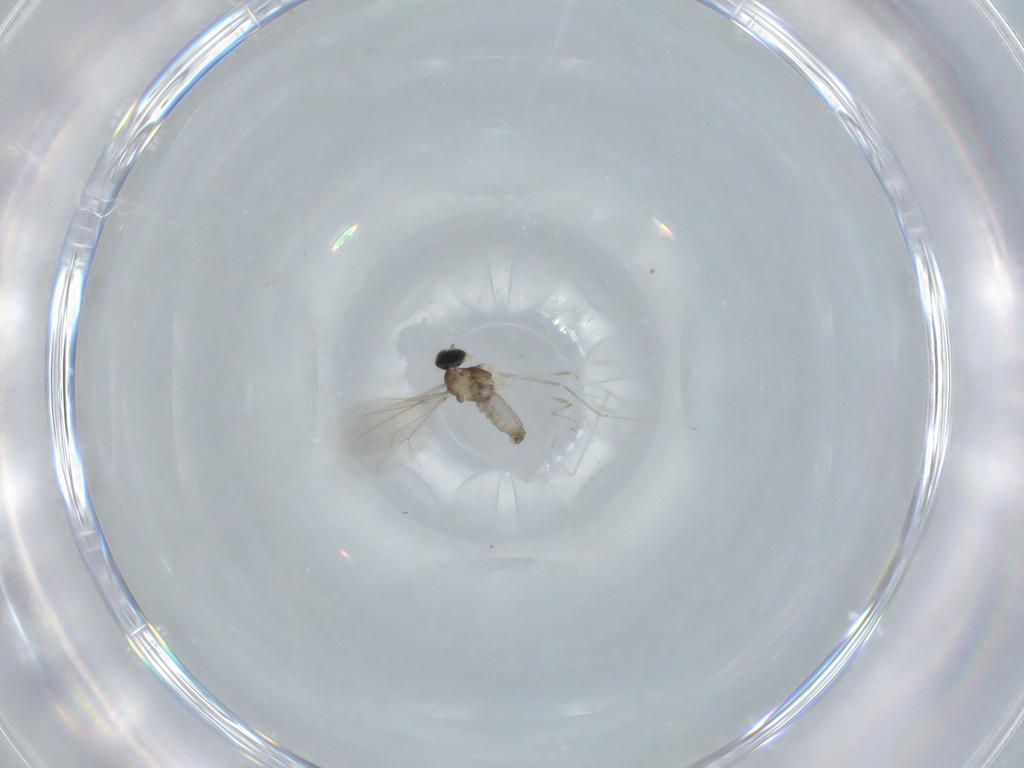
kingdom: Animalia
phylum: Arthropoda
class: Insecta
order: Diptera
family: Cecidomyiidae
